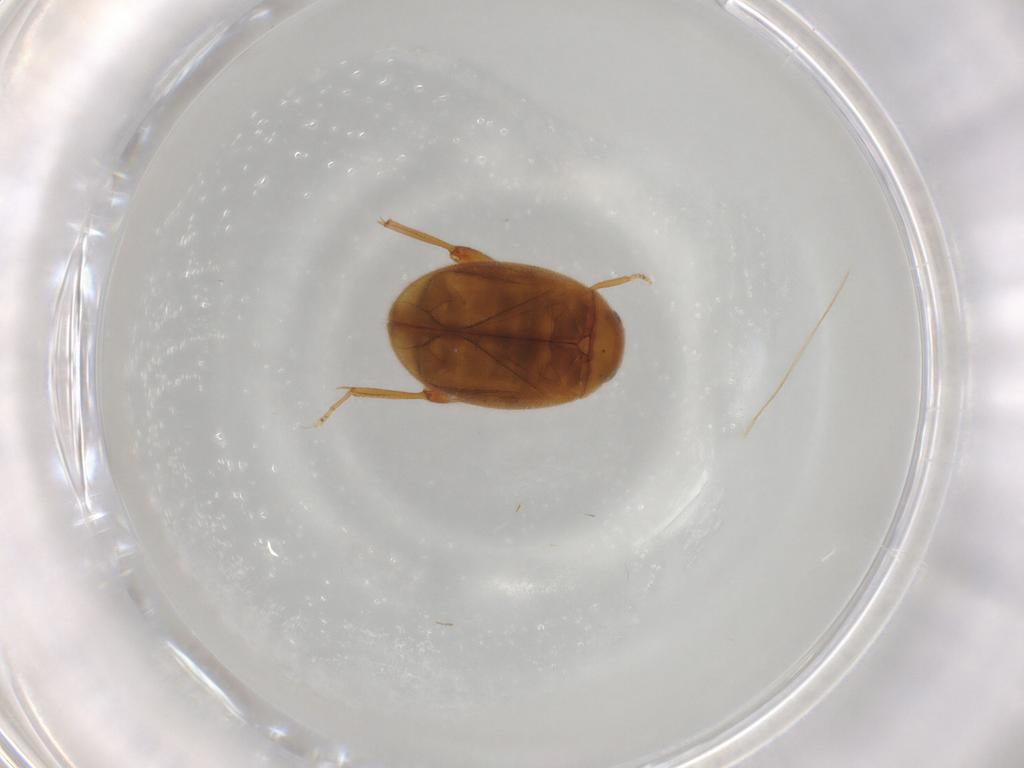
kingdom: Animalia
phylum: Arthropoda
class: Insecta
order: Coleoptera
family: Scirtidae
